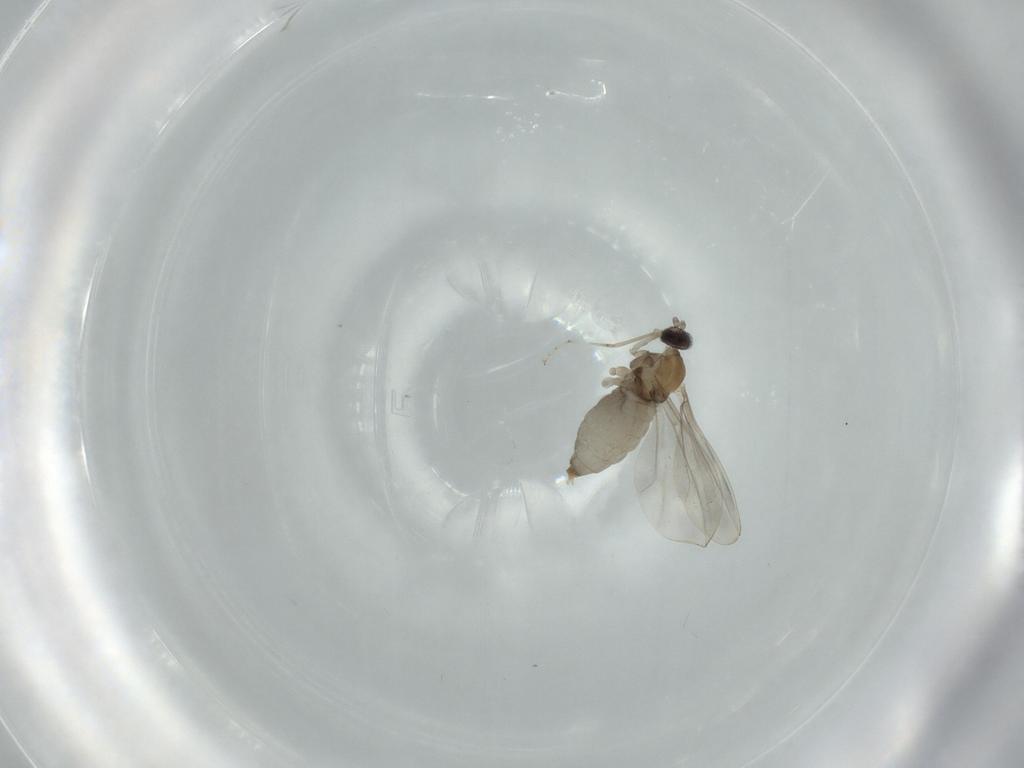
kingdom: Animalia
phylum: Arthropoda
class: Insecta
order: Diptera
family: Cecidomyiidae
